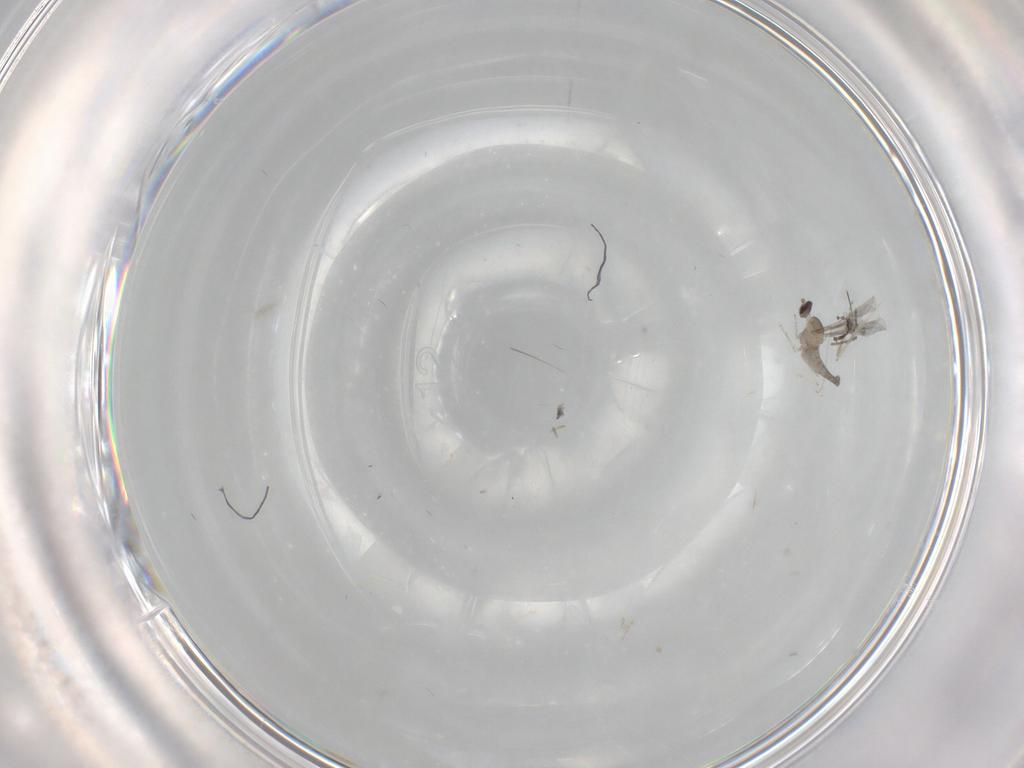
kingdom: Animalia
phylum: Arthropoda
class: Insecta
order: Diptera
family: Cecidomyiidae
